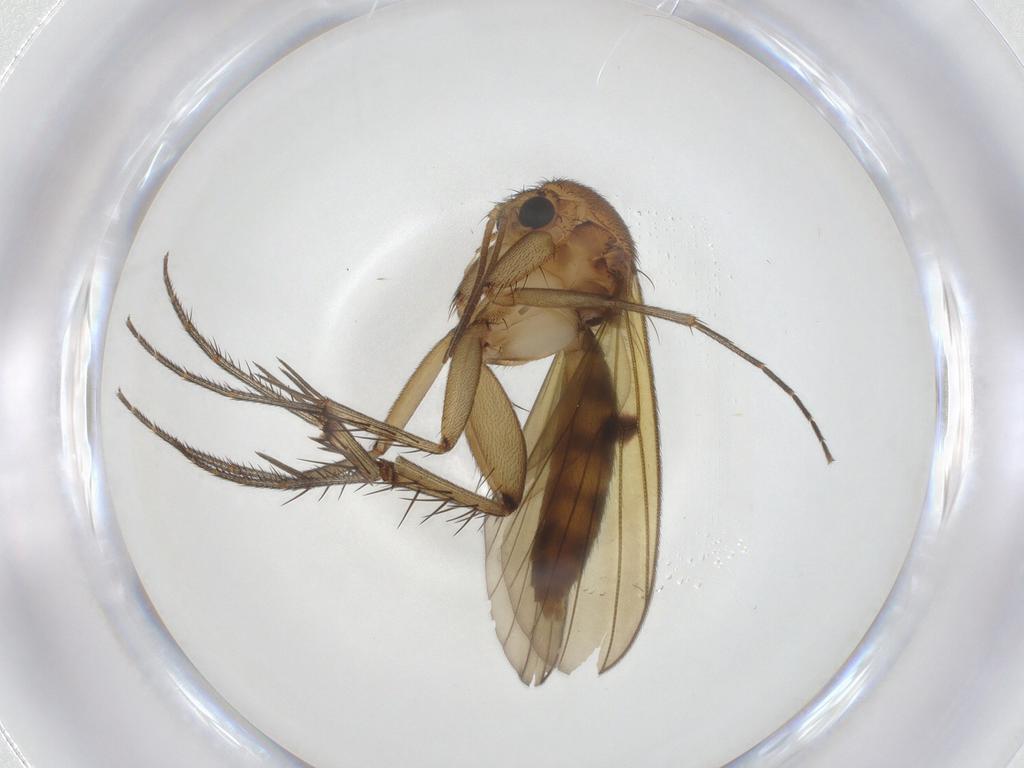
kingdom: Animalia
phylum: Arthropoda
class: Insecta
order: Diptera
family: Mycetophilidae
